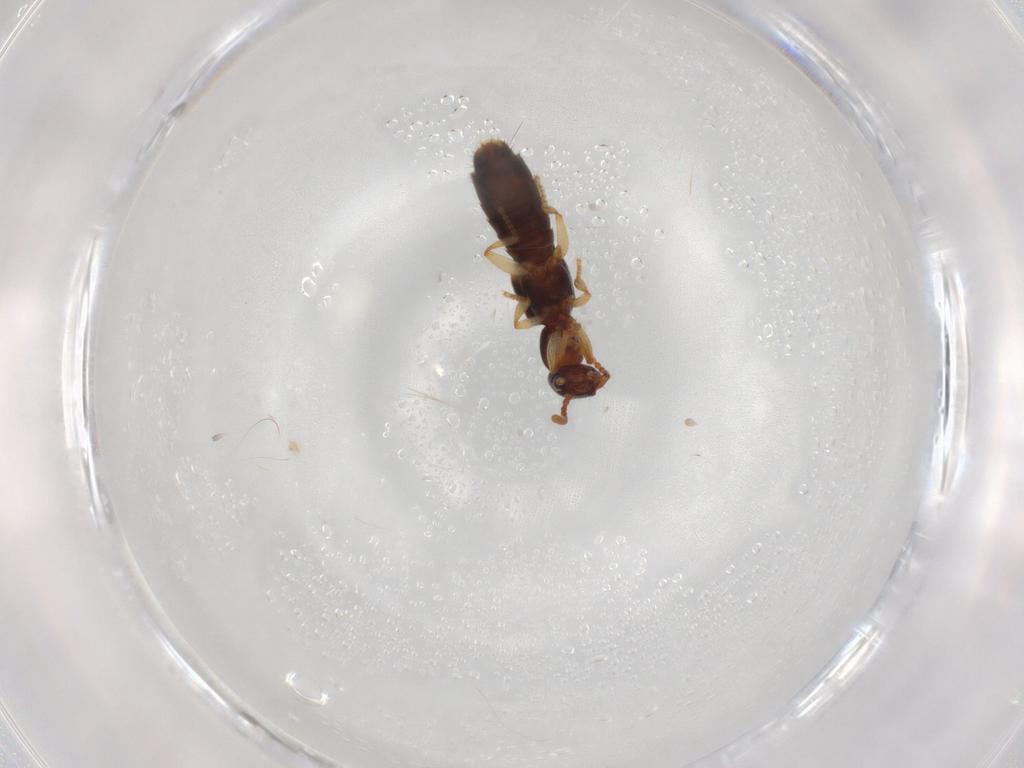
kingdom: Animalia
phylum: Arthropoda
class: Insecta
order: Coleoptera
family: Staphylinidae
